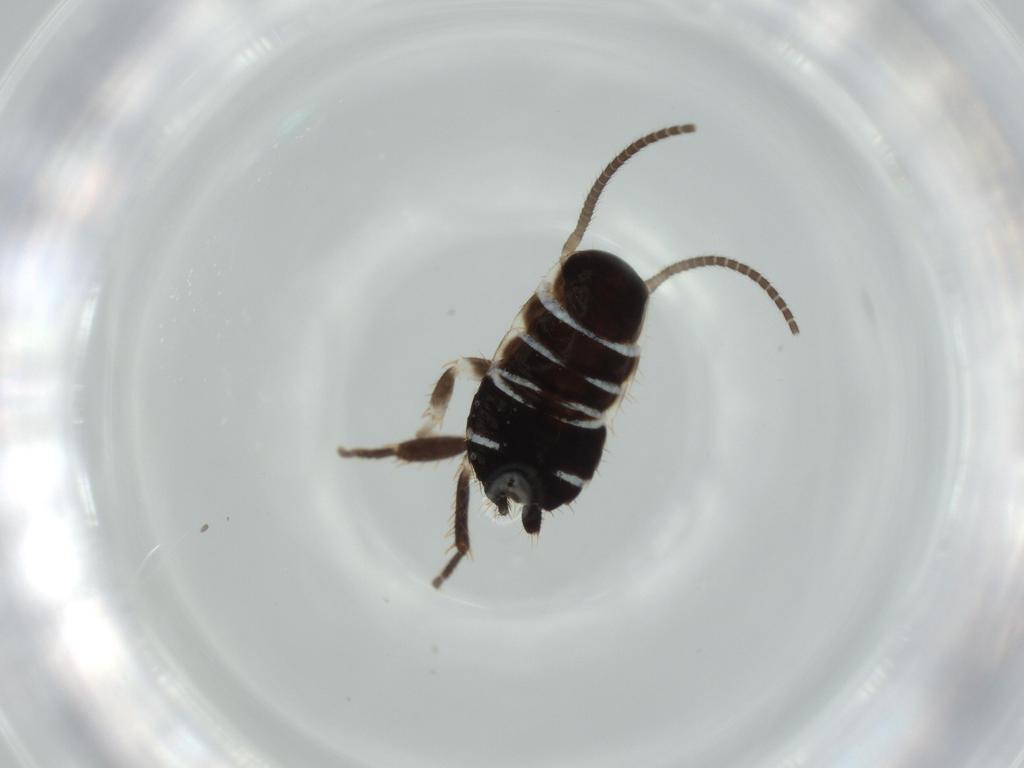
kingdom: Animalia
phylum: Arthropoda
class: Insecta
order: Blattodea
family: Ectobiidae
